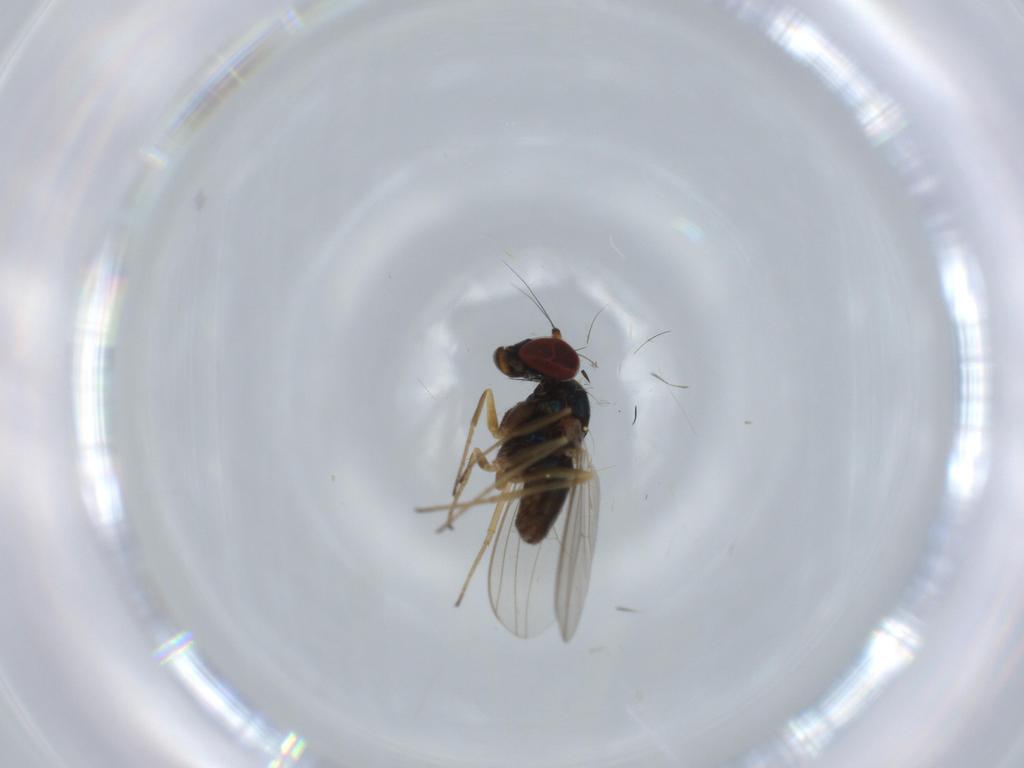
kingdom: Animalia
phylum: Arthropoda
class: Insecta
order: Diptera
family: Dolichopodidae
